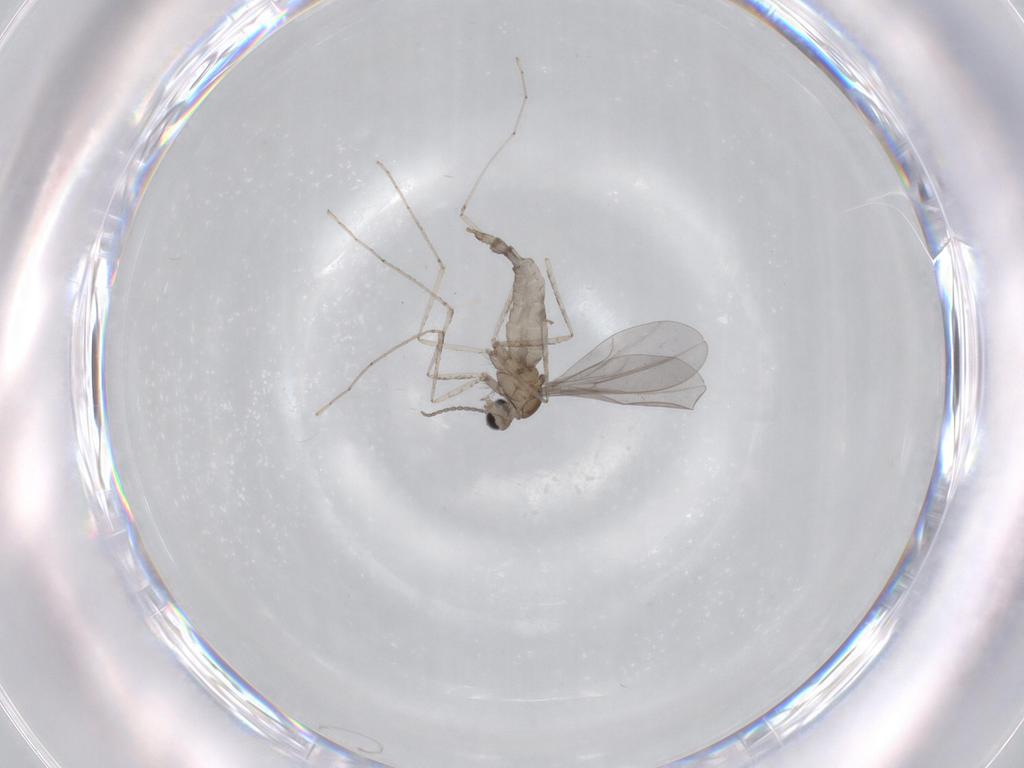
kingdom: Animalia
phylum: Arthropoda
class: Insecta
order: Diptera
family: Cecidomyiidae
